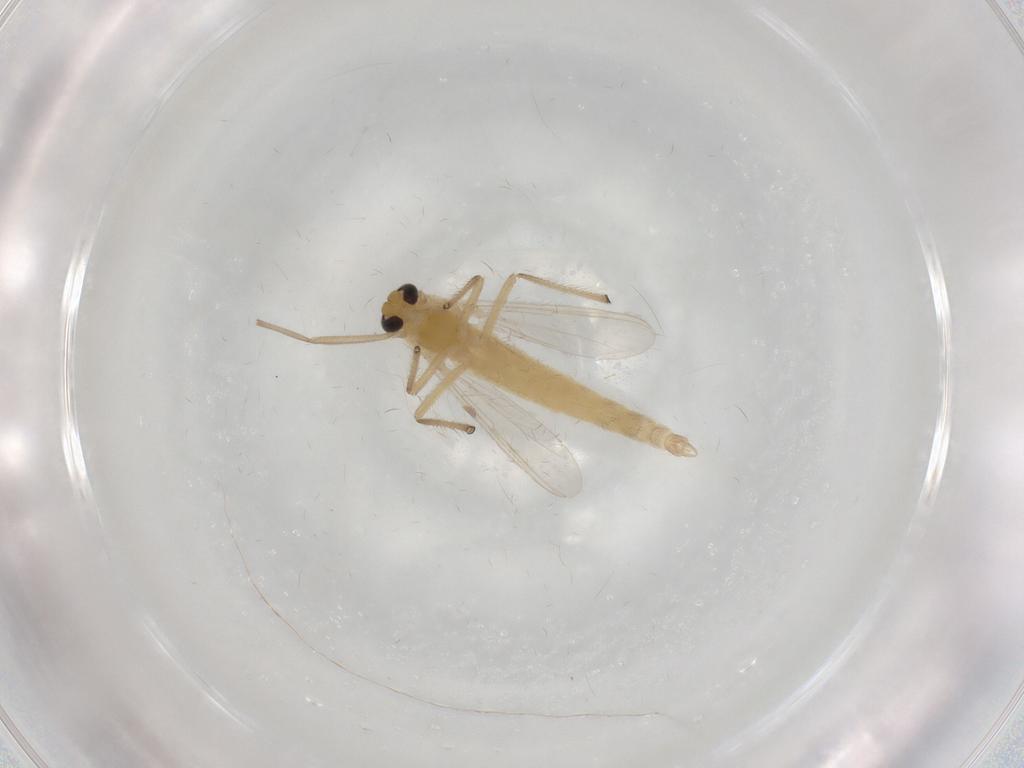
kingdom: Animalia
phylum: Arthropoda
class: Insecta
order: Diptera
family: Chironomidae
